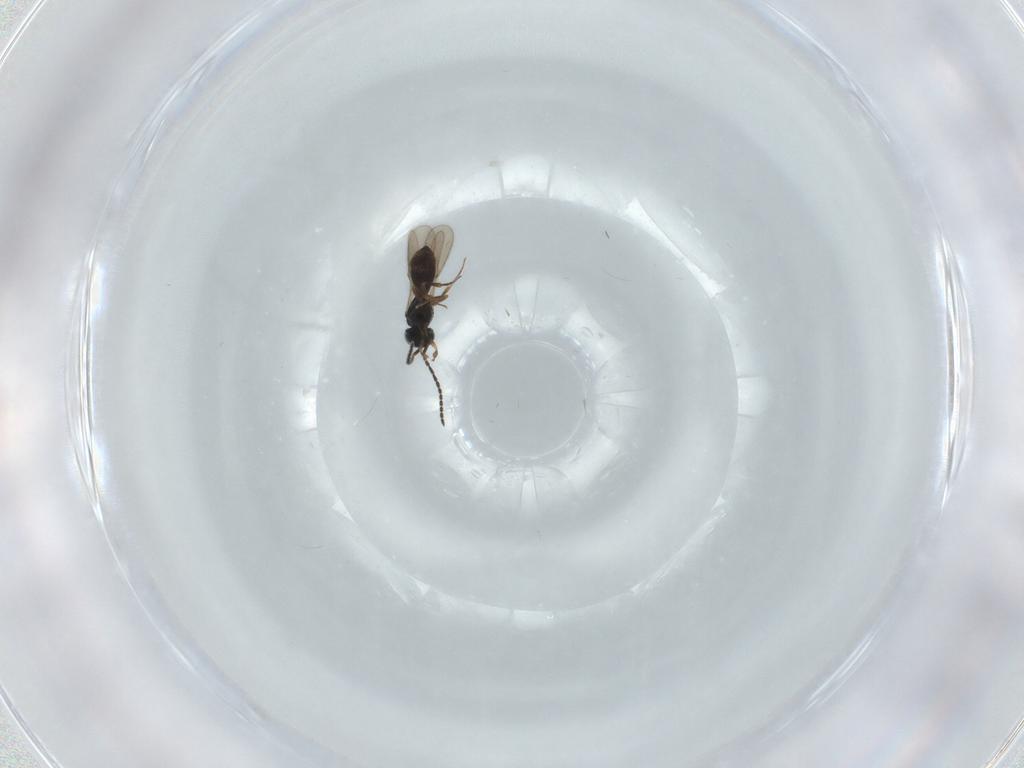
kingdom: Animalia
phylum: Arthropoda
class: Insecta
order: Hymenoptera
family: Scelionidae
